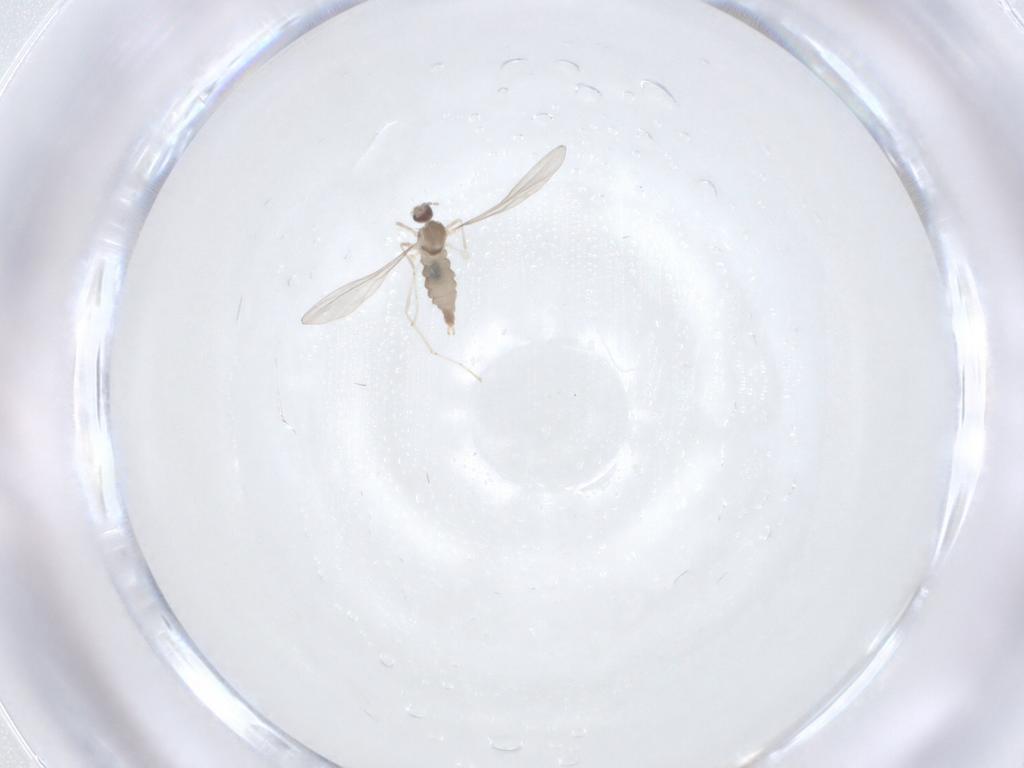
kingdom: Animalia
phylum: Arthropoda
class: Insecta
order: Diptera
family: Cecidomyiidae
